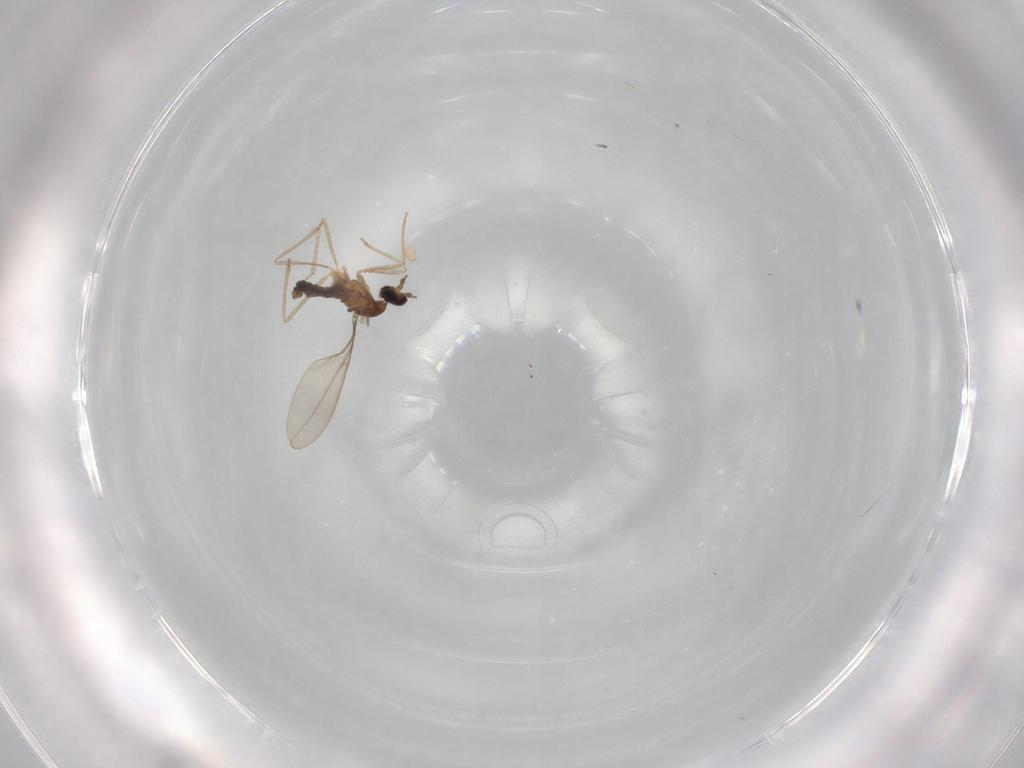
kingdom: Animalia
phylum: Arthropoda
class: Insecta
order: Diptera
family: Cecidomyiidae
